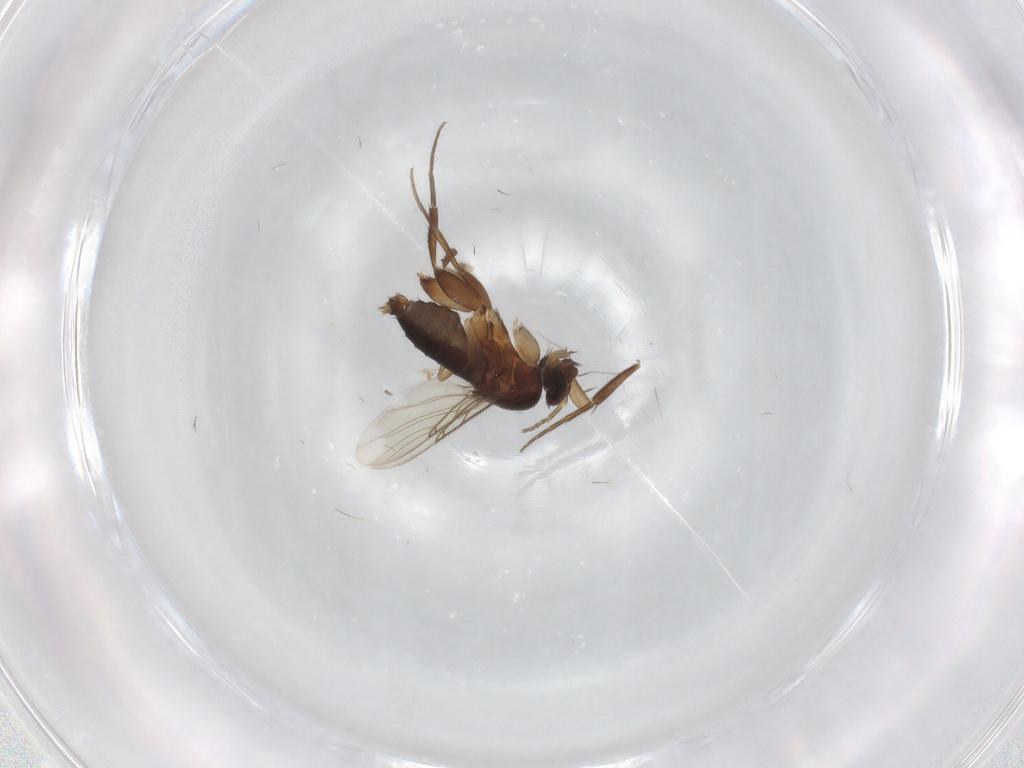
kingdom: Animalia
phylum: Arthropoda
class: Insecta
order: Diptera
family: Phoridae
